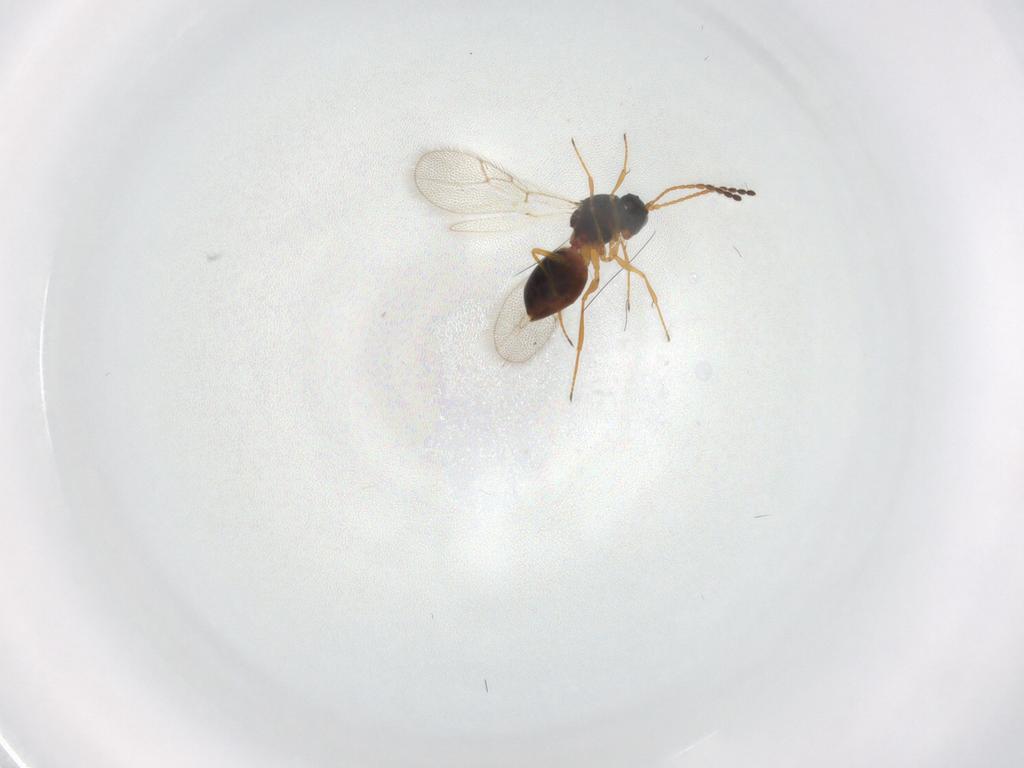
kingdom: Animalia
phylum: Arthropoda
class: Insecta
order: Hymenoptera
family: Figitidae
